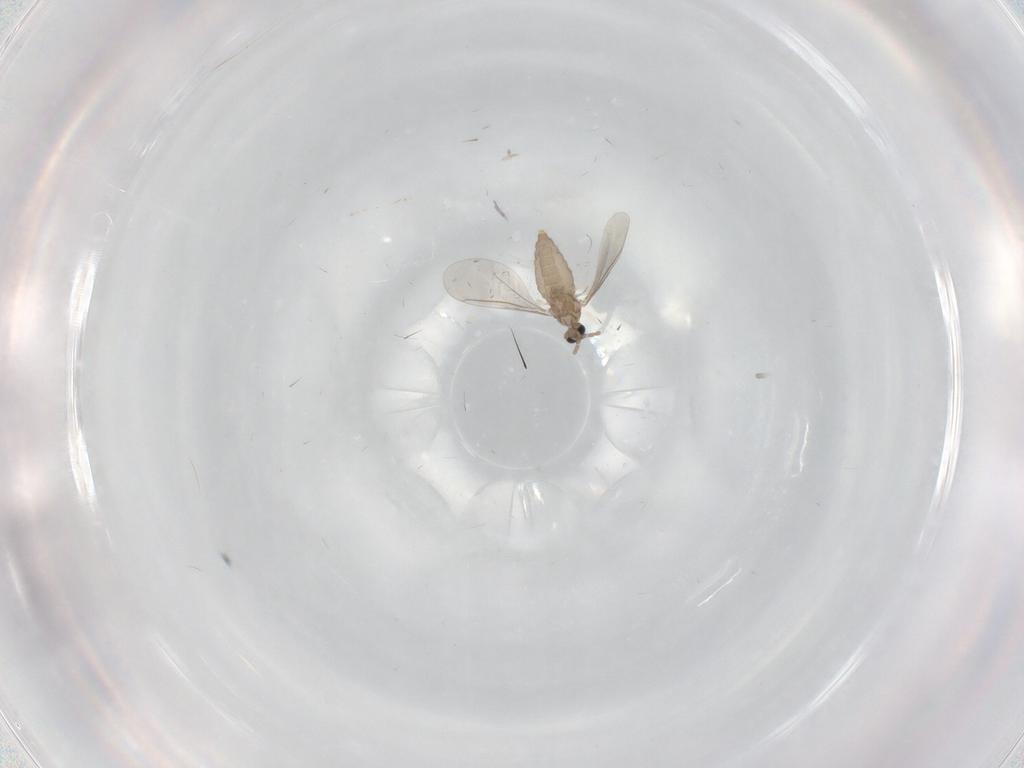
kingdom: Animalia
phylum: Arthropoda
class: Insecta
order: Diptera
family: Cecidomyiidae
